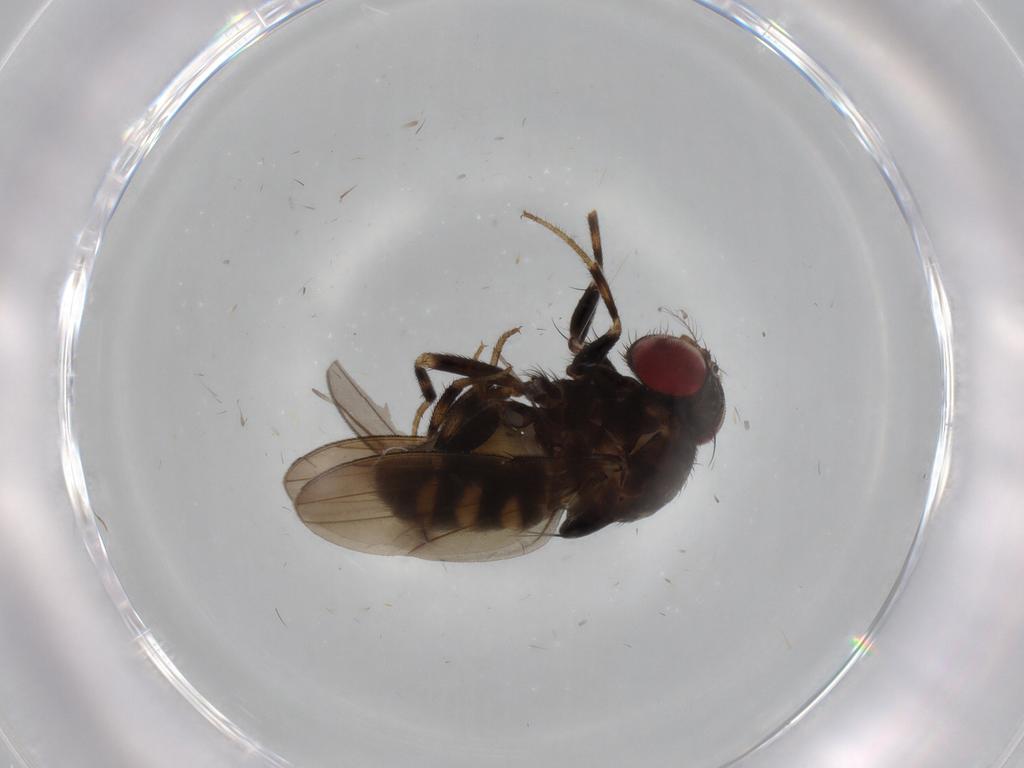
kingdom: Animalia
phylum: Arthropoda
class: Insecta
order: Diptera
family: Drosophilidae
